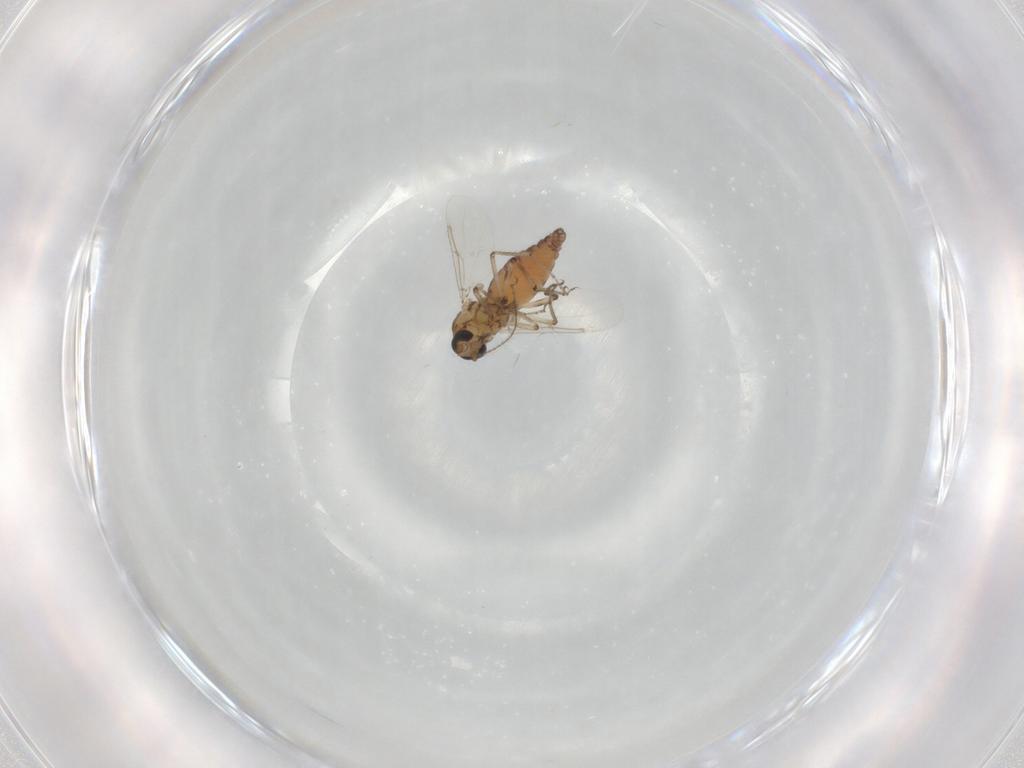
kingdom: Animalia
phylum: Arthropoda
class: Insecta
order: Diptera
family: Ceratopogonidae
